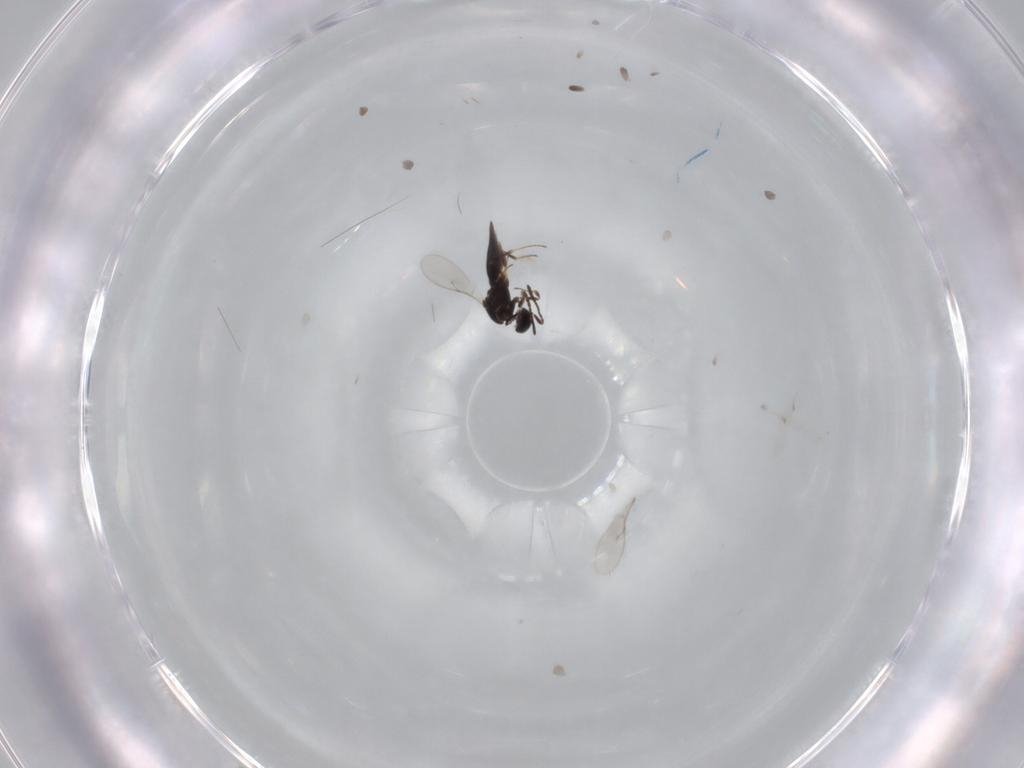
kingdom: Animalia
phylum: Arthropoda
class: Insecta
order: Hymenoptera
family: Scelionidae
